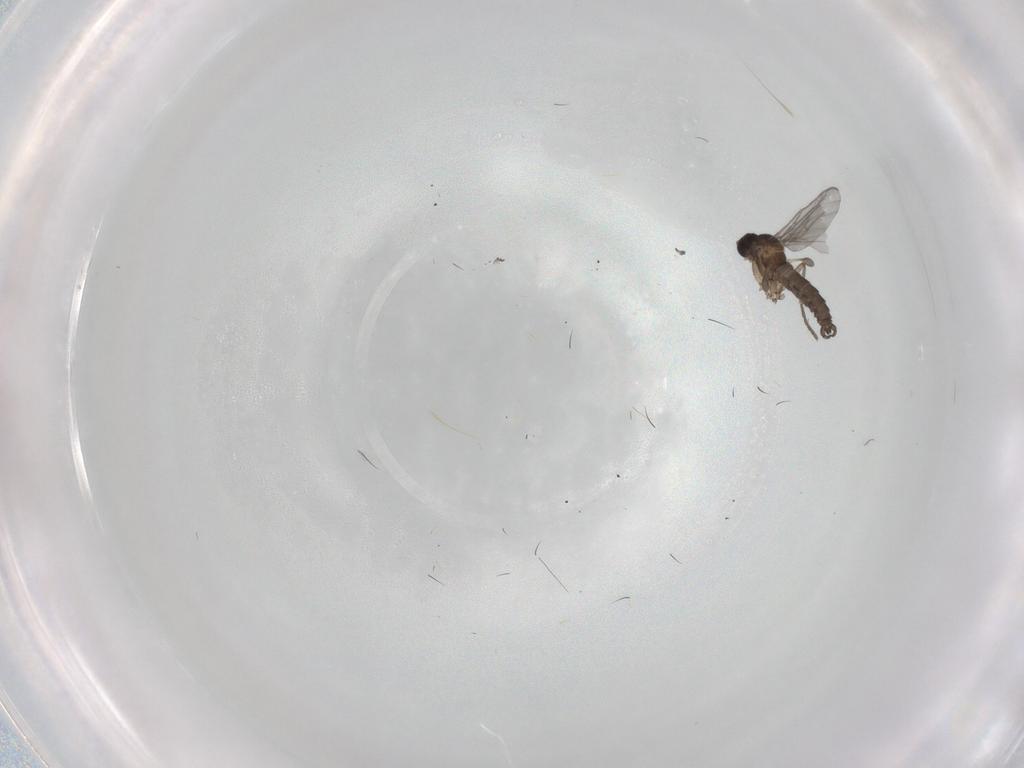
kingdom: Animalia
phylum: Arthropoda
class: Insecta
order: Diptera
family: Sciaridae
